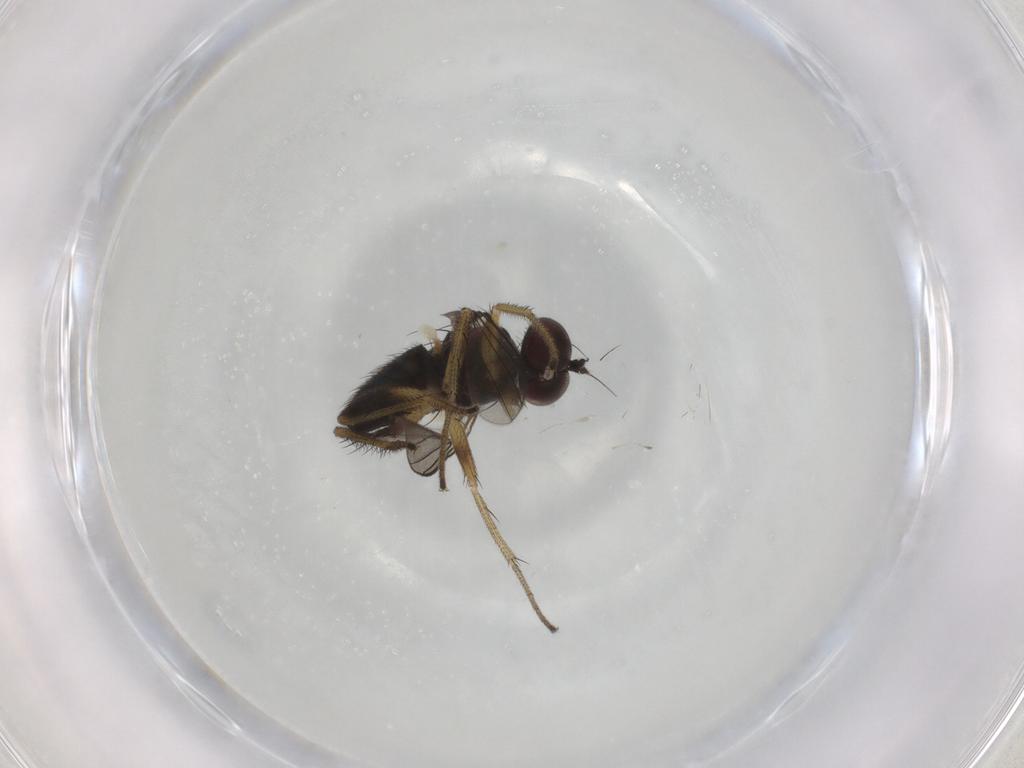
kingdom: Animalia
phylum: Arthropoda
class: Insecta
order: Diptera
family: Dolichopodidae
